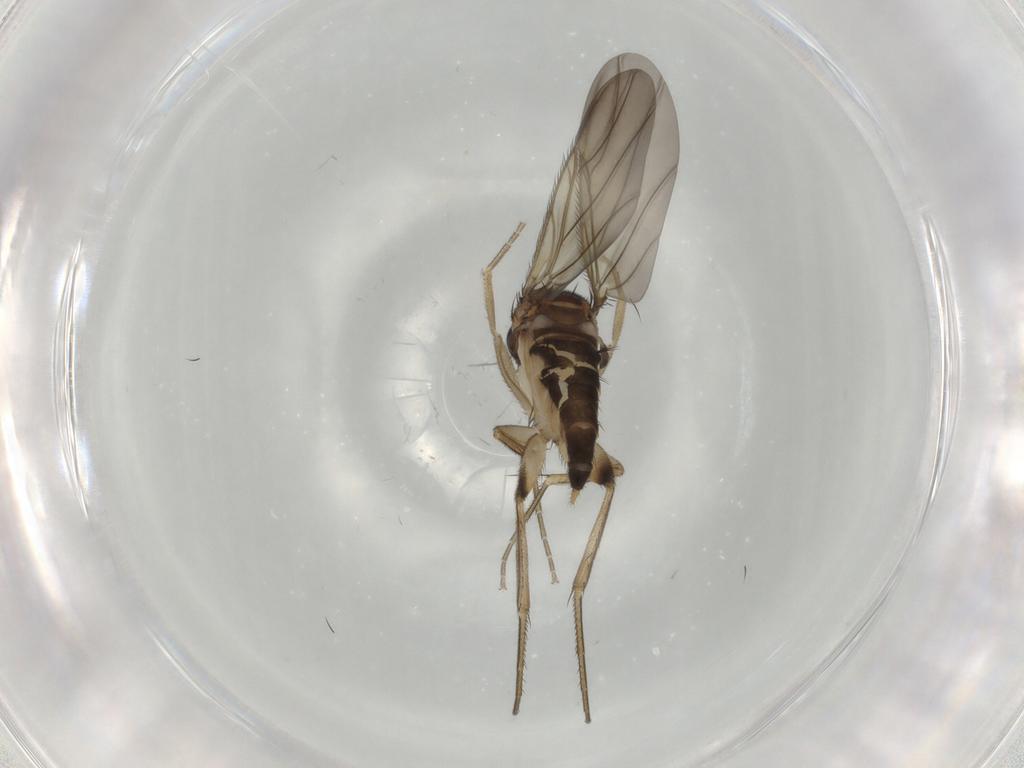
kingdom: Animalia
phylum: Arthropoda
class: Insecta
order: Diptera
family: Phoridae
